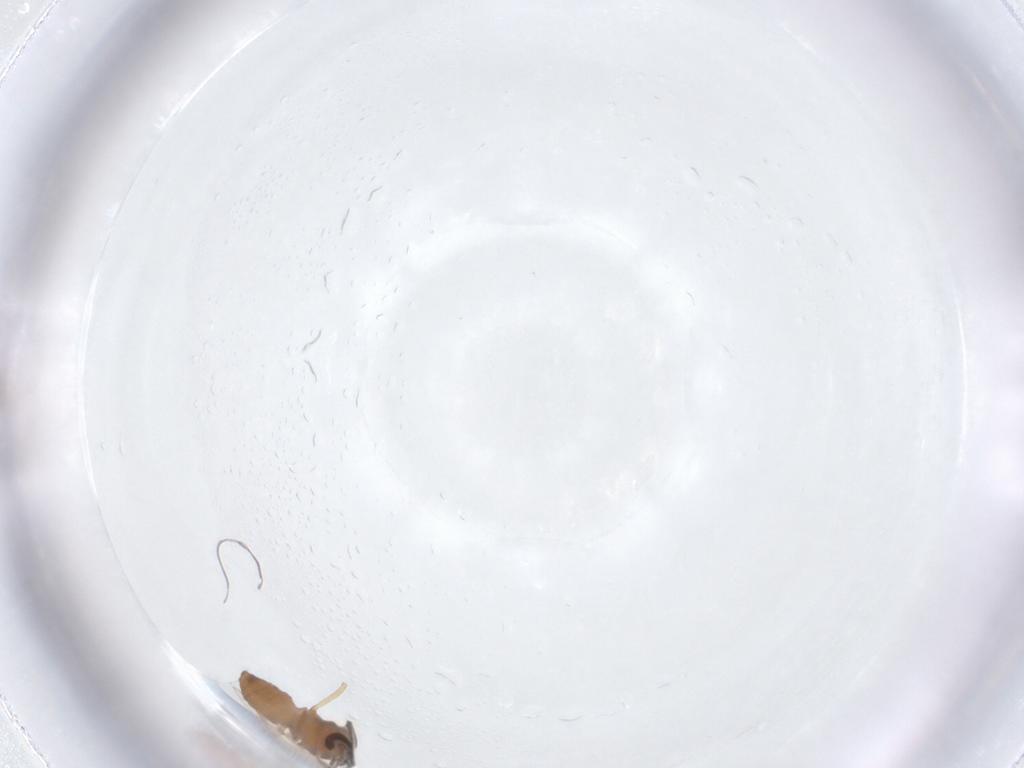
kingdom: Animalia
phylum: Arthropoda
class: Insecta
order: Diptera
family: Ceratopogonidae
